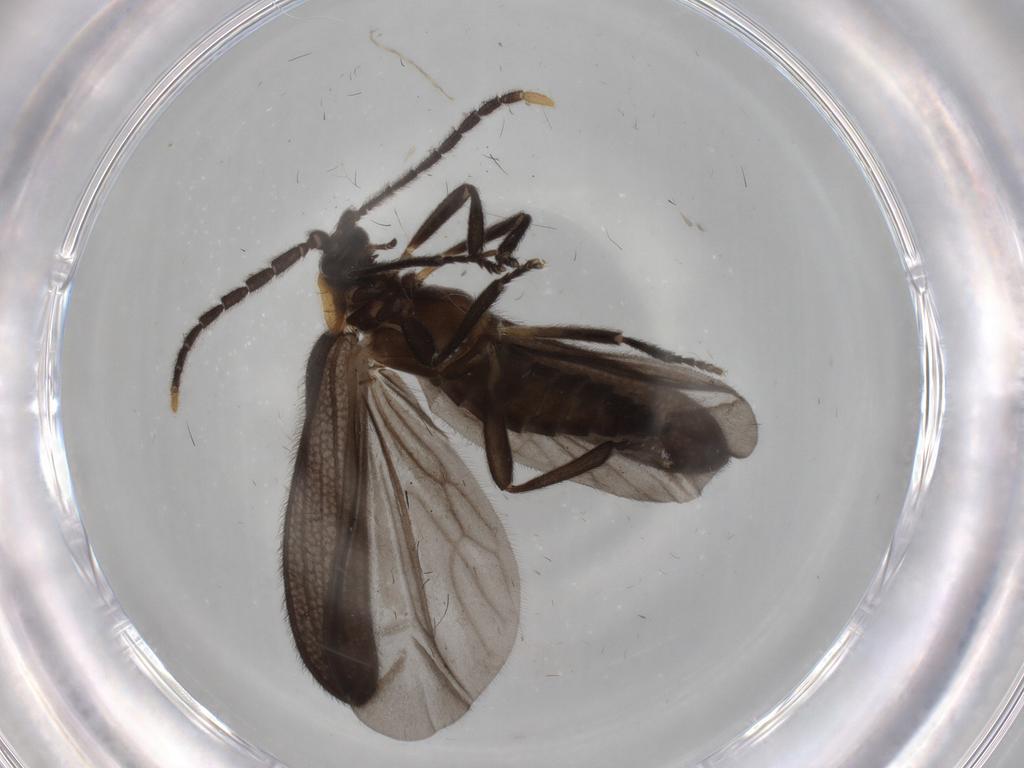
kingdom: Animalia
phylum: Arthropoda
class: Insecta
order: Coleoptera
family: Lycidae
